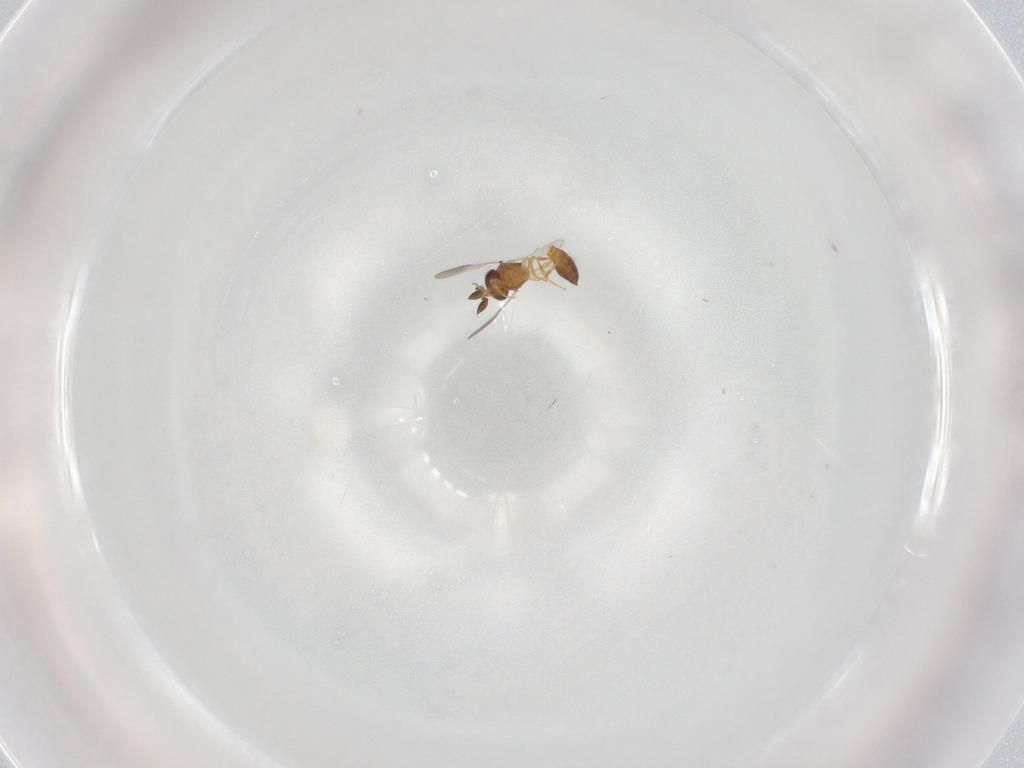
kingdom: Animalia
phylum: Arthropoda
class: Insecta
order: Hymenoptera
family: Scelionidae
